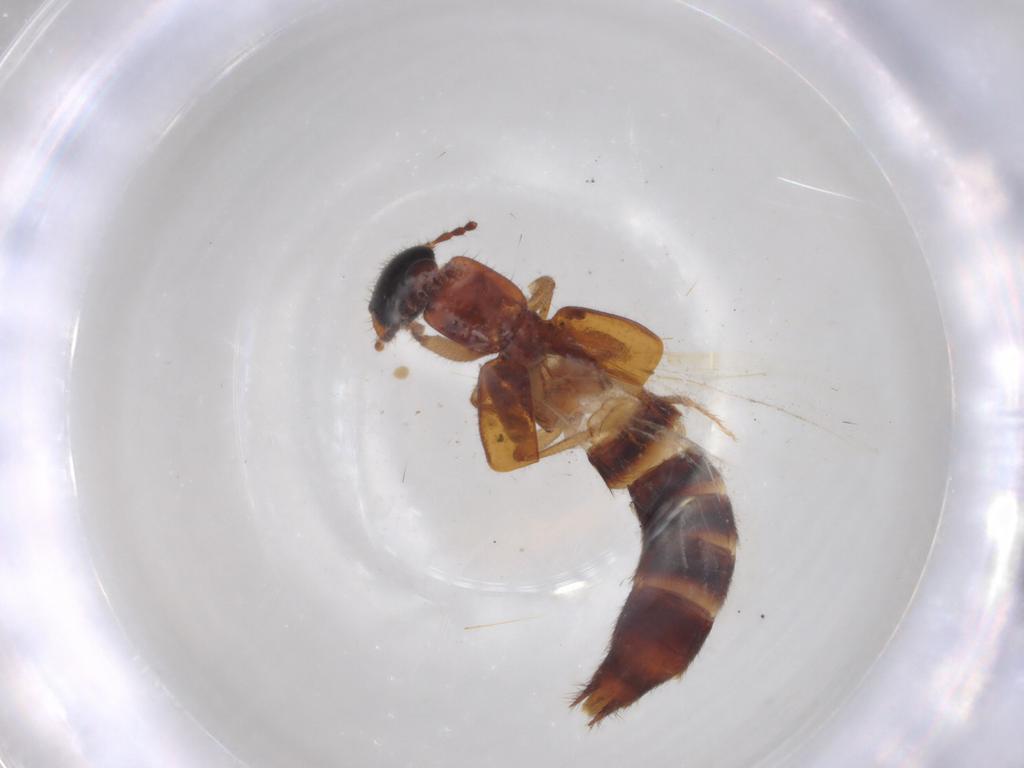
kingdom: Animalia
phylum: Arthropoda
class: Insecta
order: Coleoptera
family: Staphylinidae
